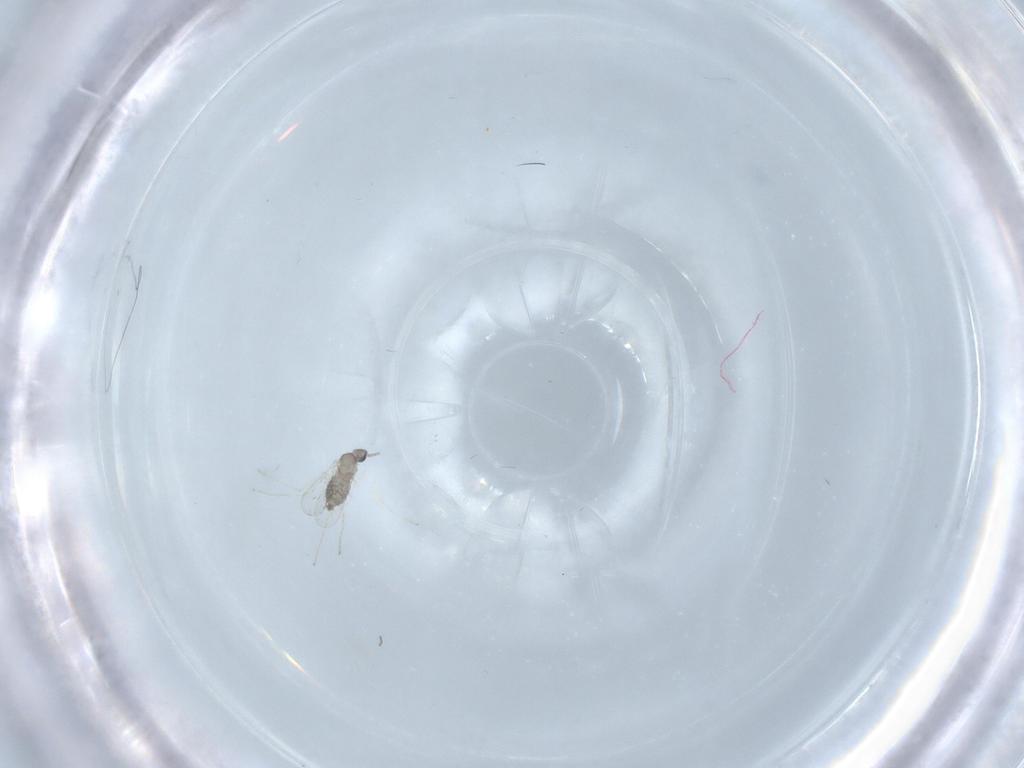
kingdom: Animalia
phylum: Arthropoda
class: Insecta
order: Diptera
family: Cecidomyiidae
